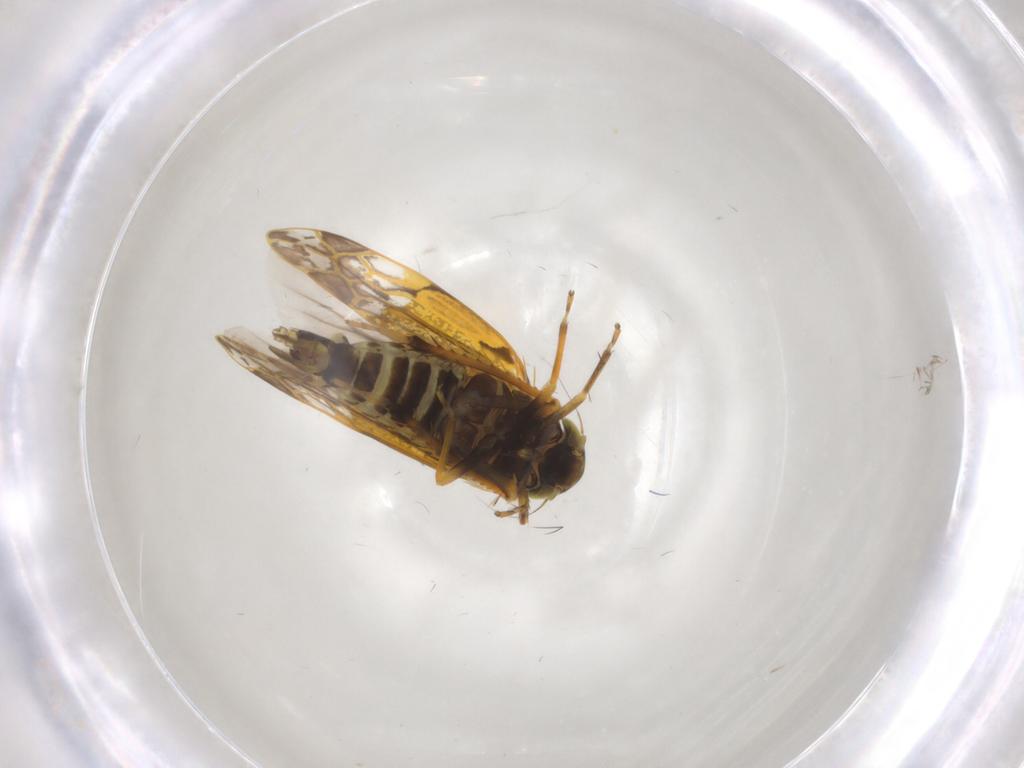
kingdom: Animalia
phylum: Arthropoda
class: Insecta
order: Hemiptera
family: Cicadellidae
